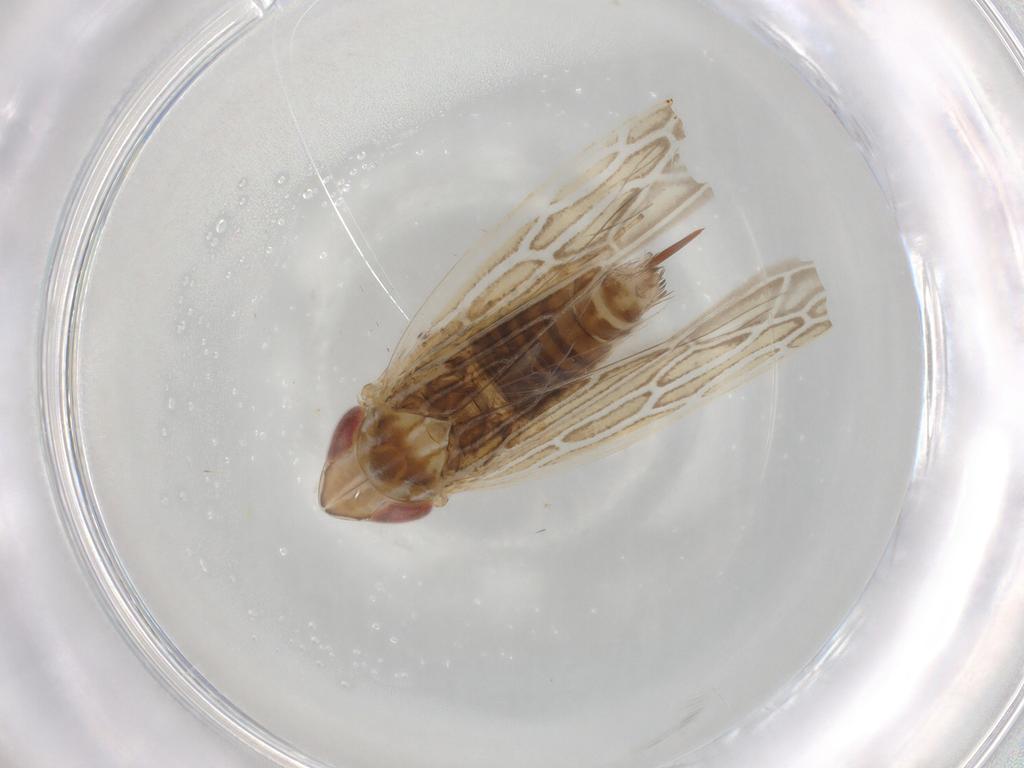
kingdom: Animalia
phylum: Arthropoda
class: Insecta
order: Hemiptera
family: Cicadellidae
